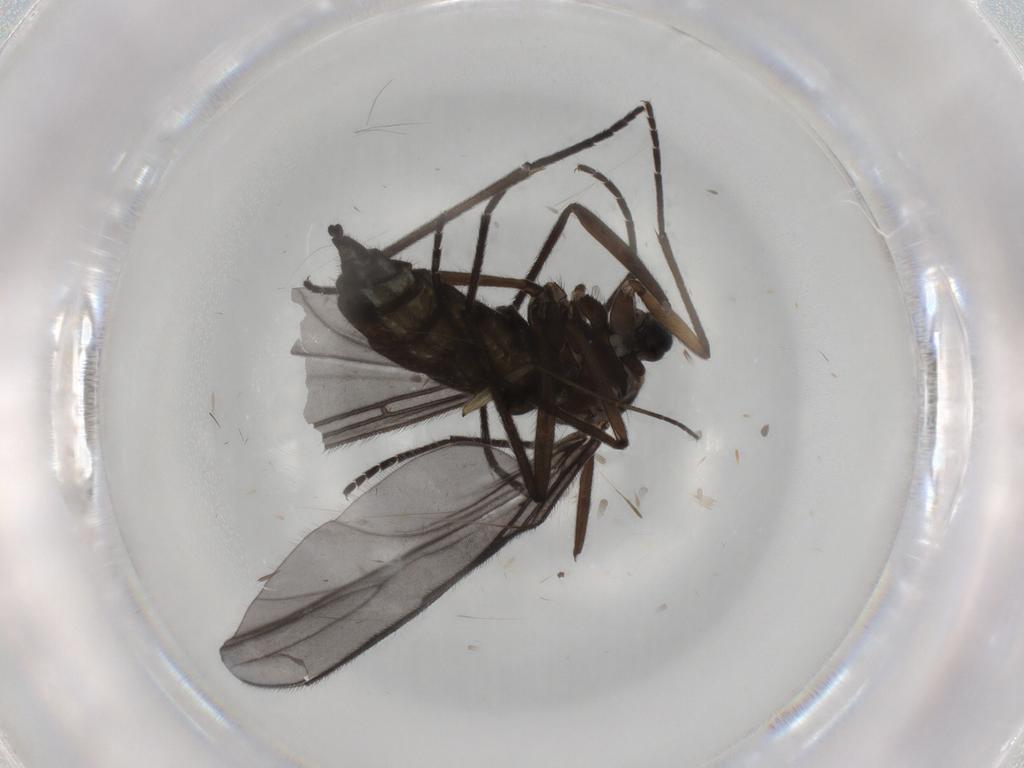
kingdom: Animalia
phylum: Arthropoda
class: Insecta
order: Diptera
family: Sciaridae
